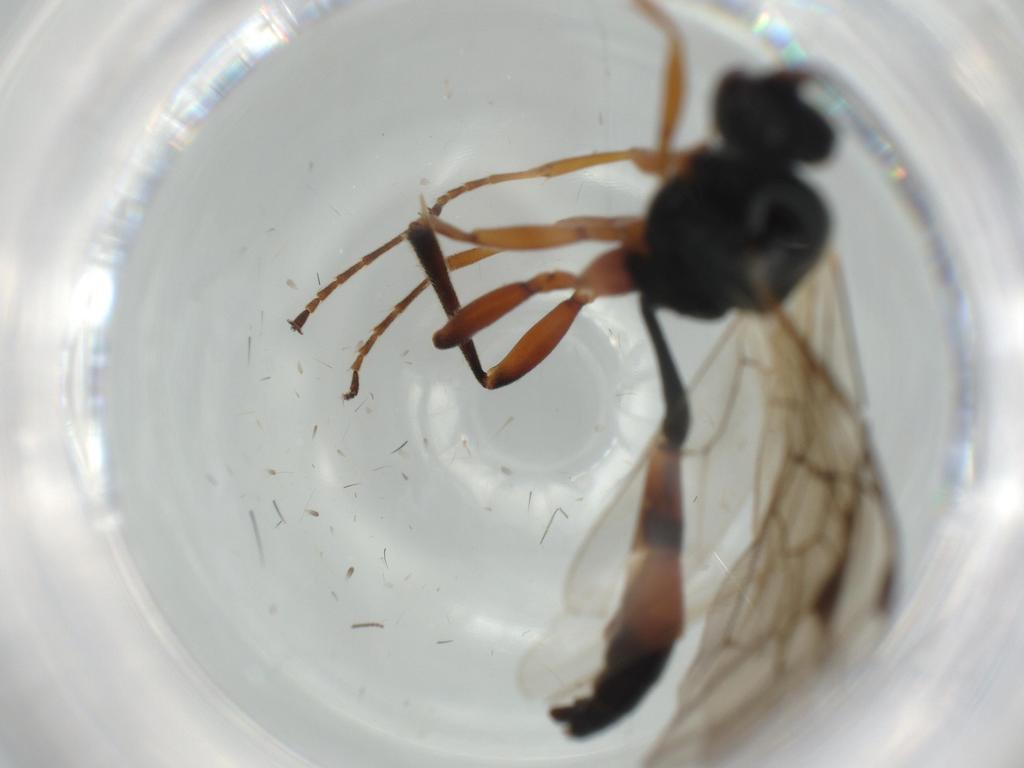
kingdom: Animalia
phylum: Arthropoda
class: Insecta
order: Hymenoptera
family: Ichneumonidae
